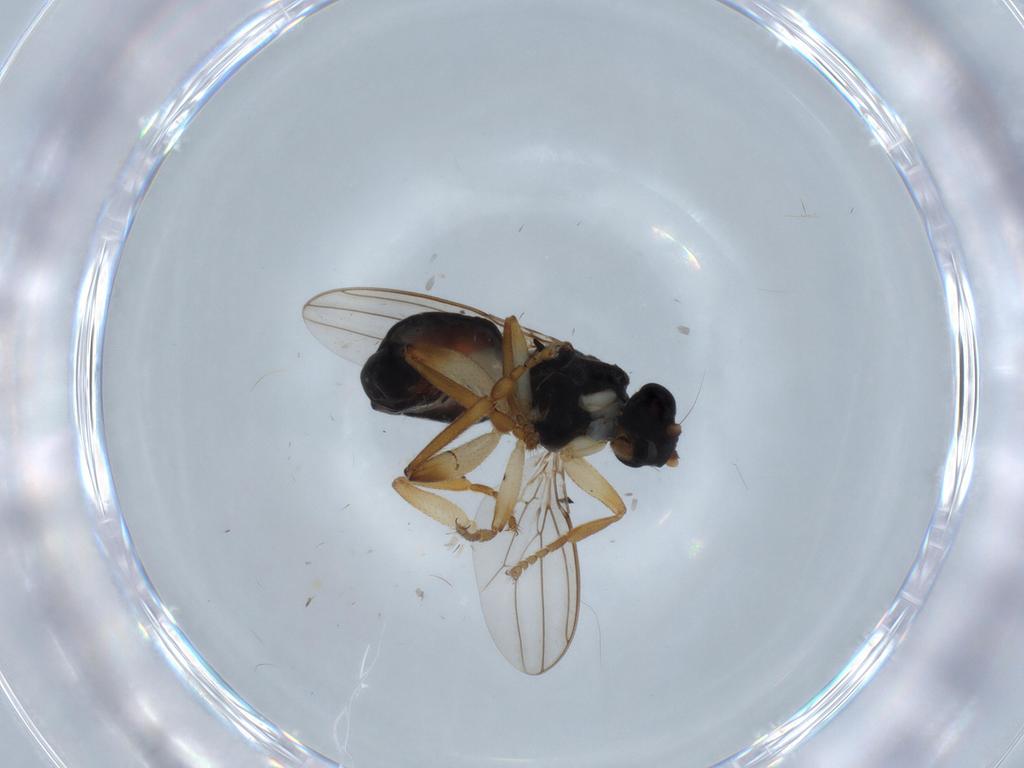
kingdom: Animalia
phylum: Arthropoda
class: Insecta
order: Diptera
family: Sphaeroceridae
